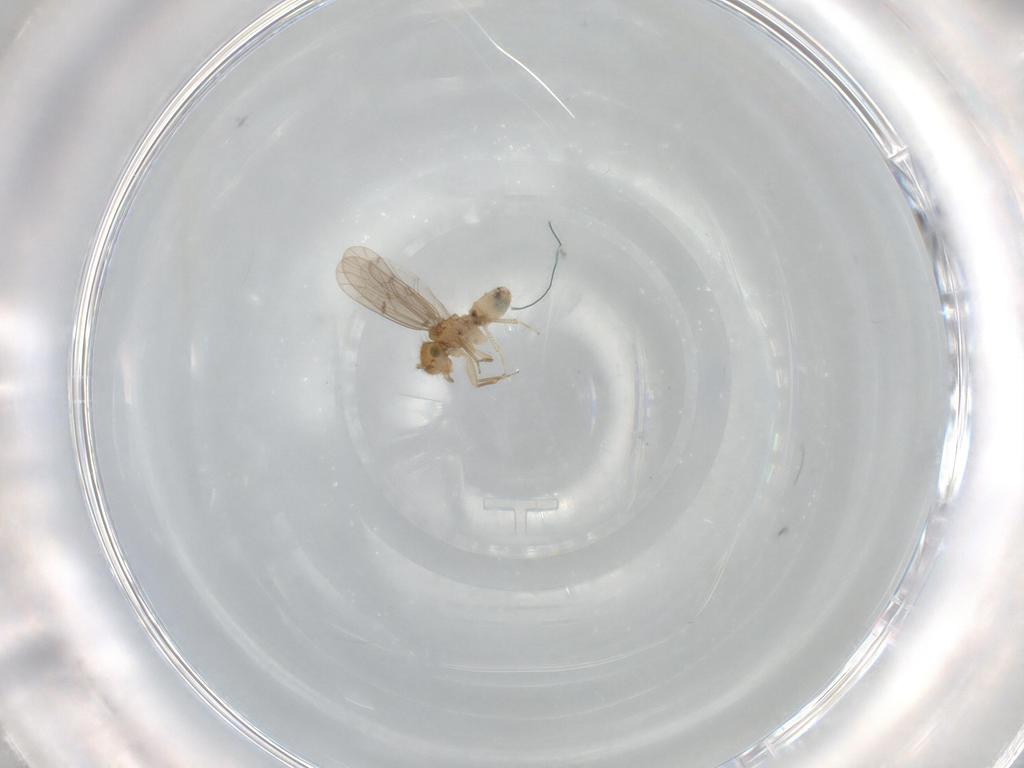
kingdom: Animalia
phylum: Arthropoda
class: Insecta
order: Psocodea
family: Ectopsocidae
